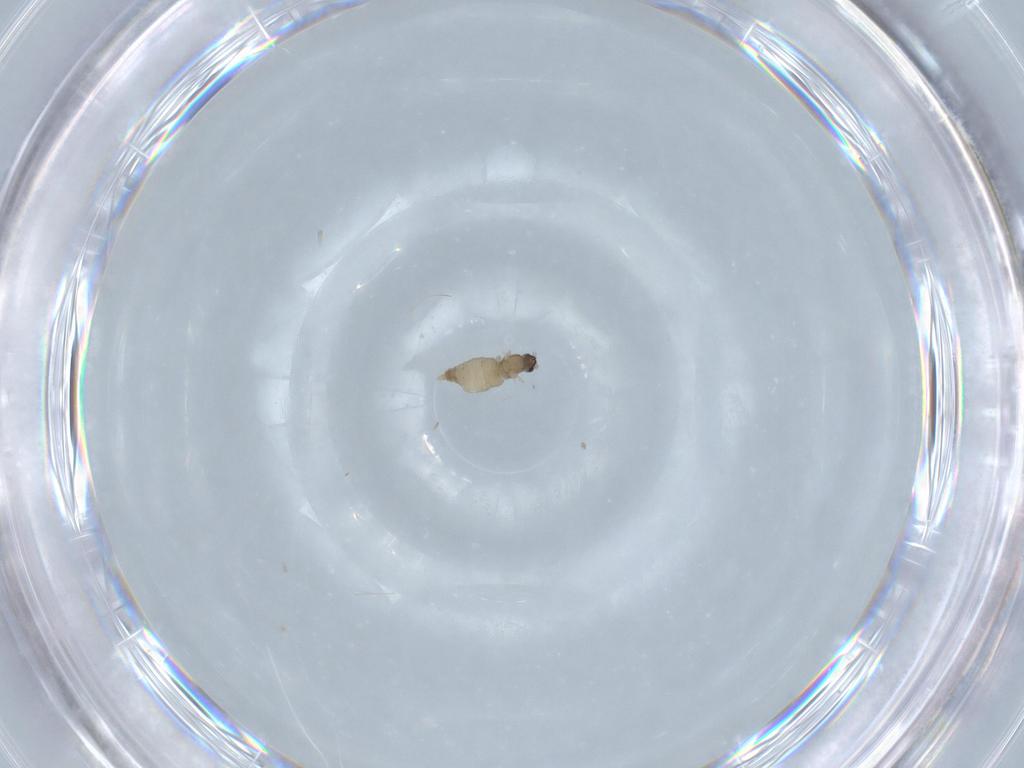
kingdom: Animalia
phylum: Arthropoda
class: Insecta
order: Diptera
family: Cecidomyiidae
